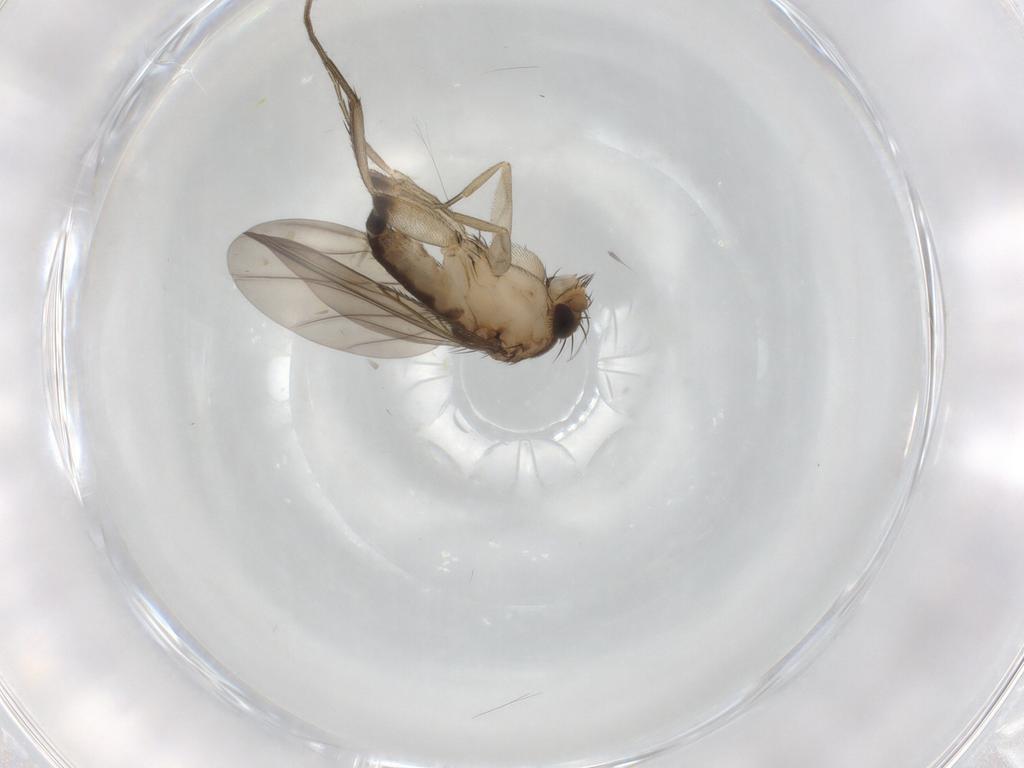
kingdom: Animalia
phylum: Arthropoda
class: Insecta
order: Diptera
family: Phoridae
